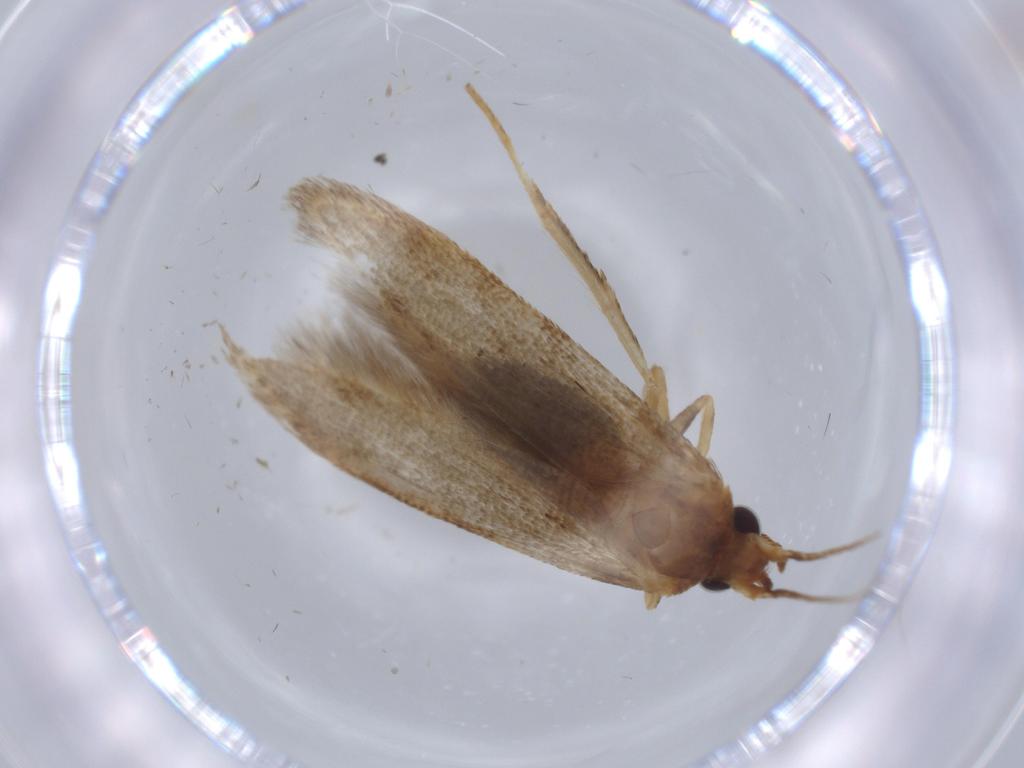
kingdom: Animalia
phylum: Arthropoda
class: Insecta
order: Lepidoptera
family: Blastobasidae
